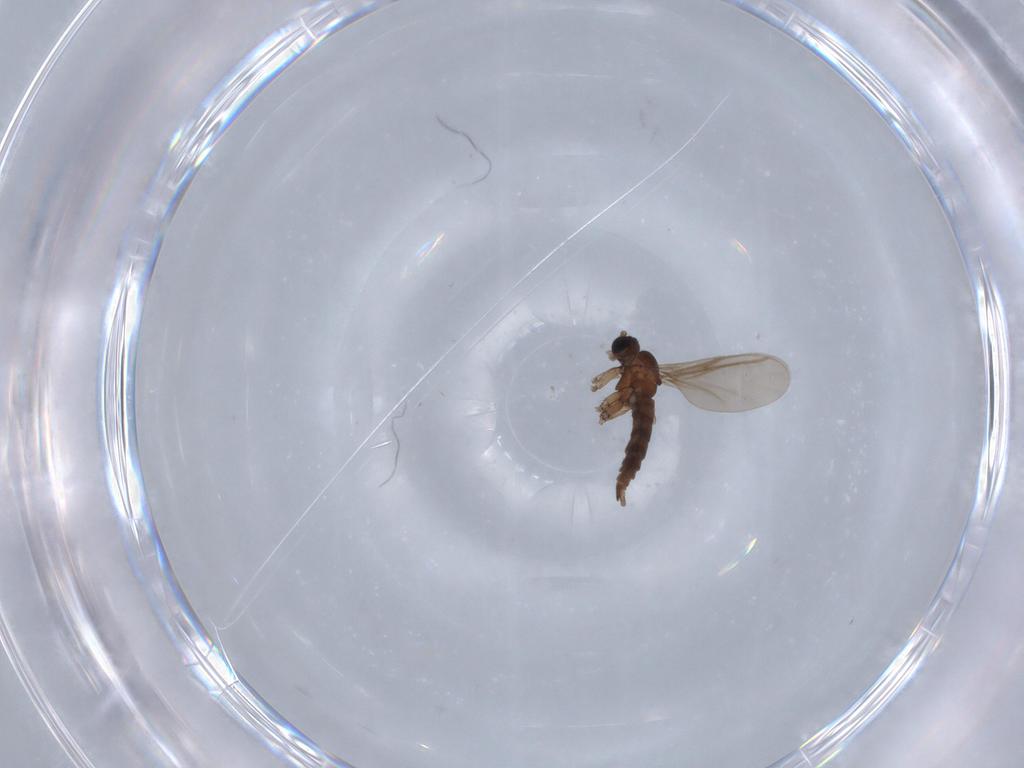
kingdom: Animalia
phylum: Arthropoda
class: Insecta
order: Diptera
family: Sciaridae
